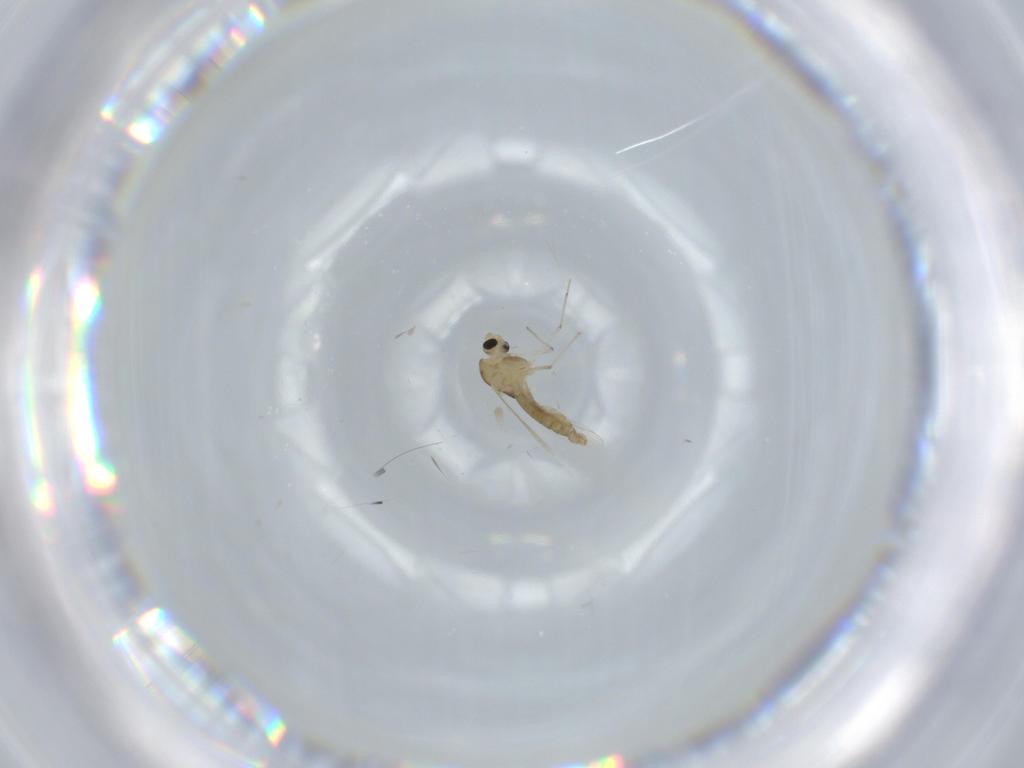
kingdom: Animalia
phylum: Arthropoda
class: Insecta
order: Diptera
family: Chironomidae
